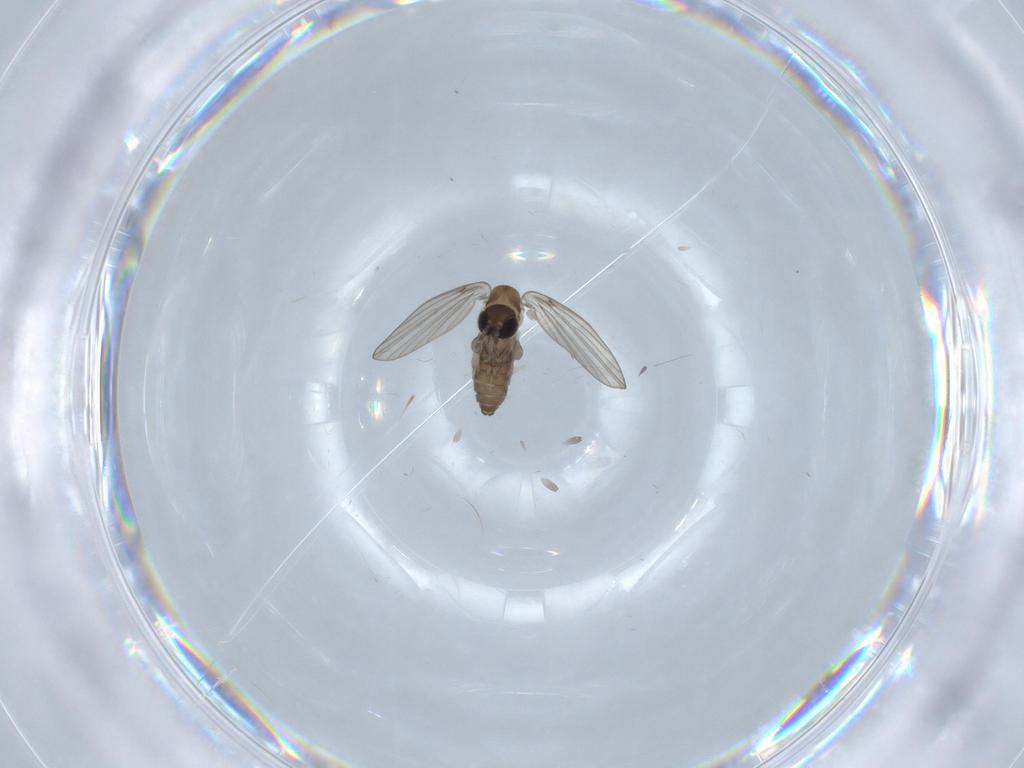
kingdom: Animalia
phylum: Arthropoda
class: Insecta
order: Diptera
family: Psychodidae
